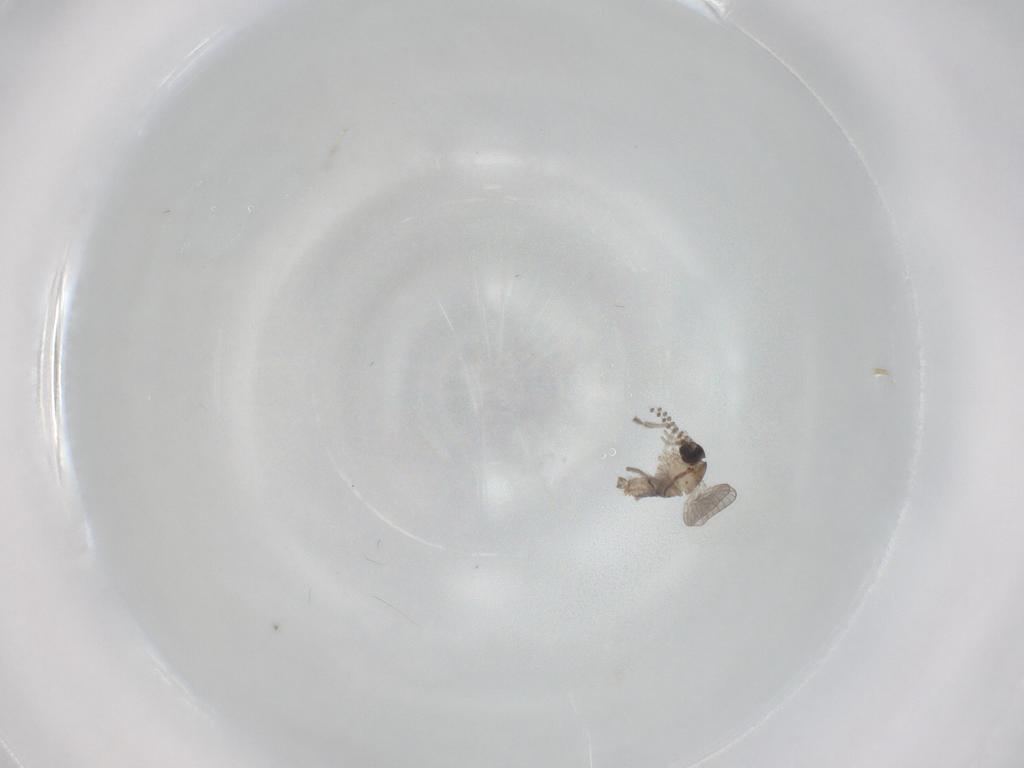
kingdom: Animalia
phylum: Arthropoda
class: Insecta
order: Diptera
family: Psychodidae
